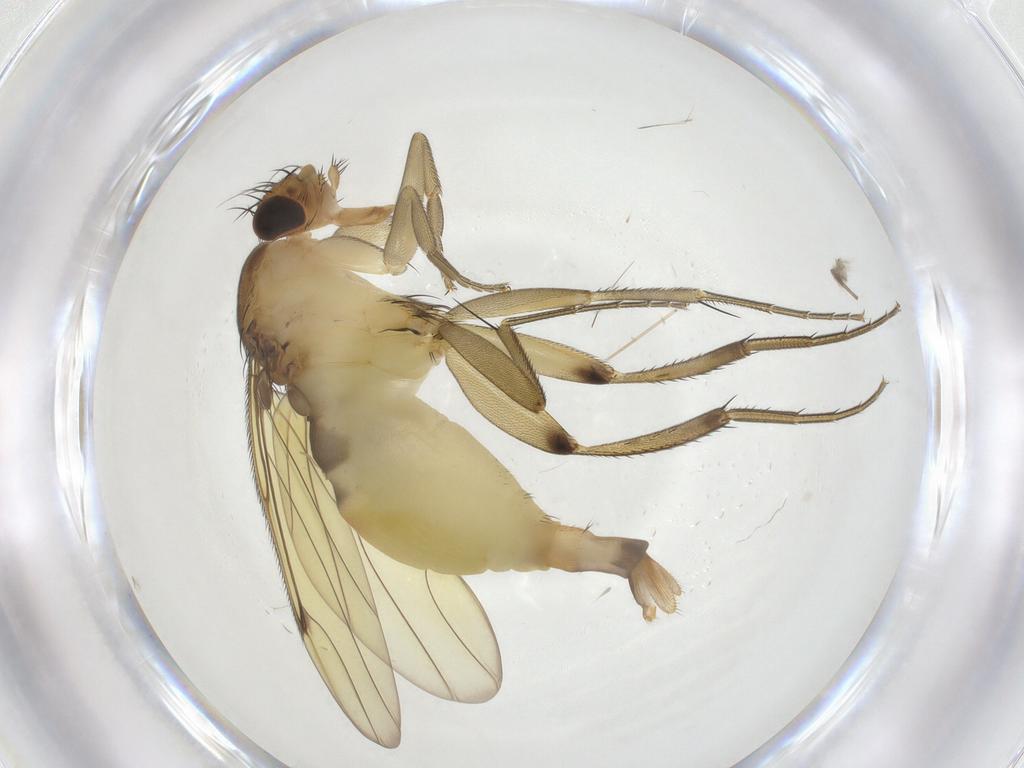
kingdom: Animalia
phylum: Arthropoda
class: Insecta
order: Diptera
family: Phoridae
